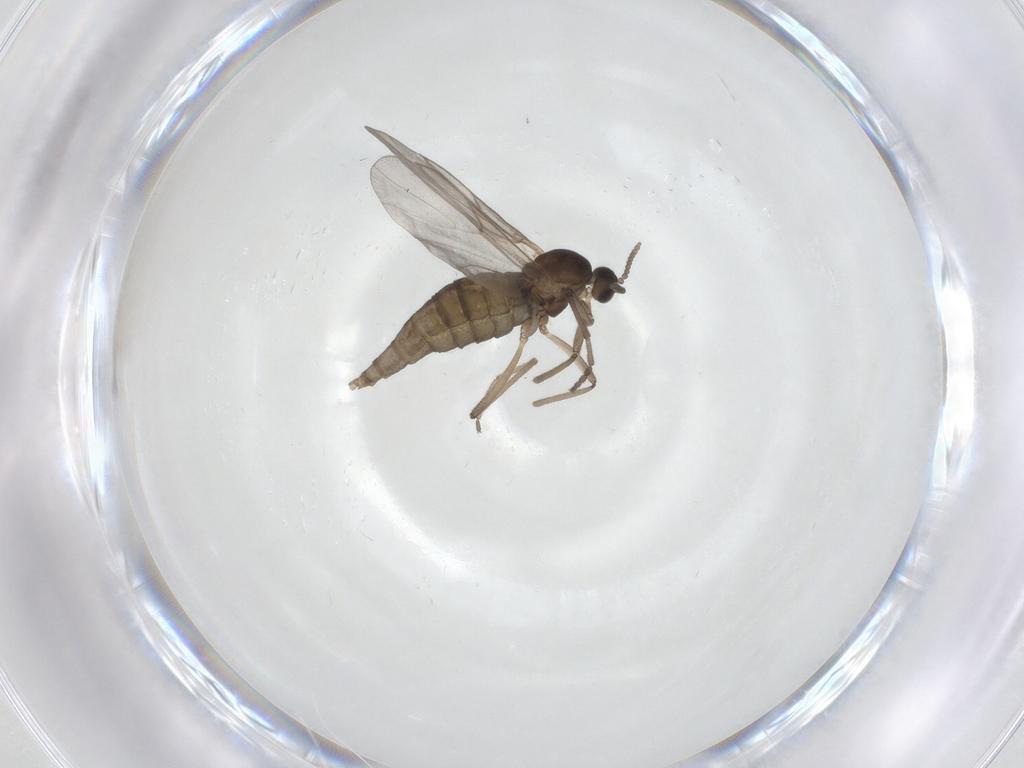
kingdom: Animalia
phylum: Arthropoda
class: Insecta
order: Diptera
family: Cecidomyiidae
